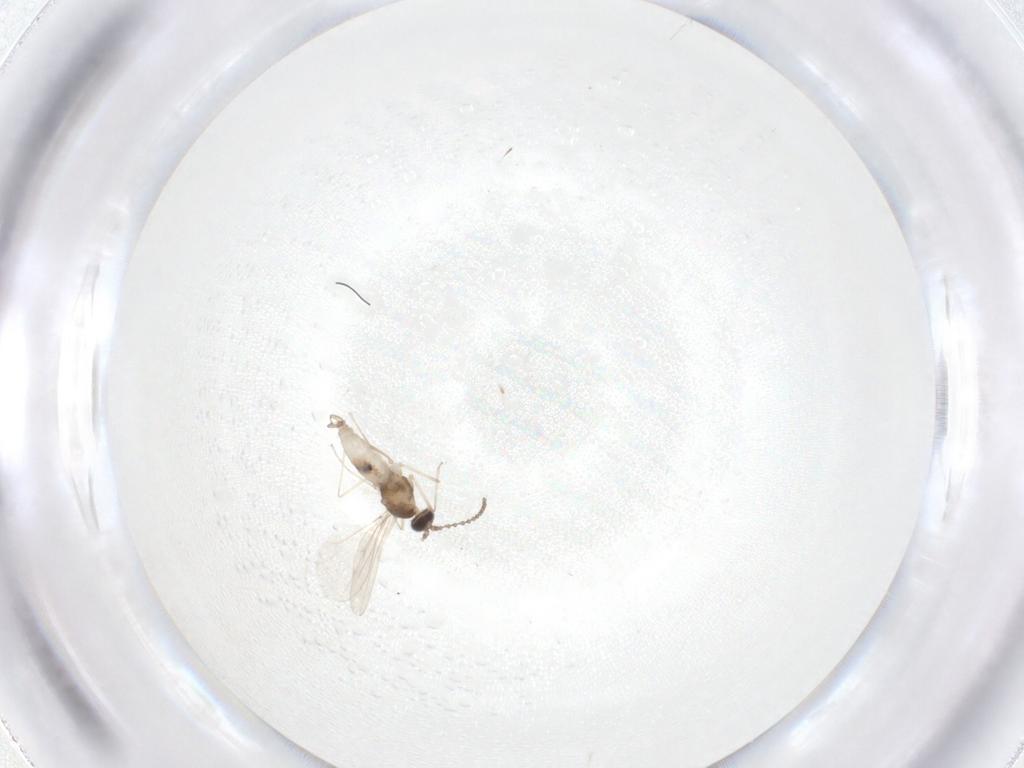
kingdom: Animalia
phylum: Arthropoda
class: Insecta
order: Diptera
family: Cecidomyiidae
